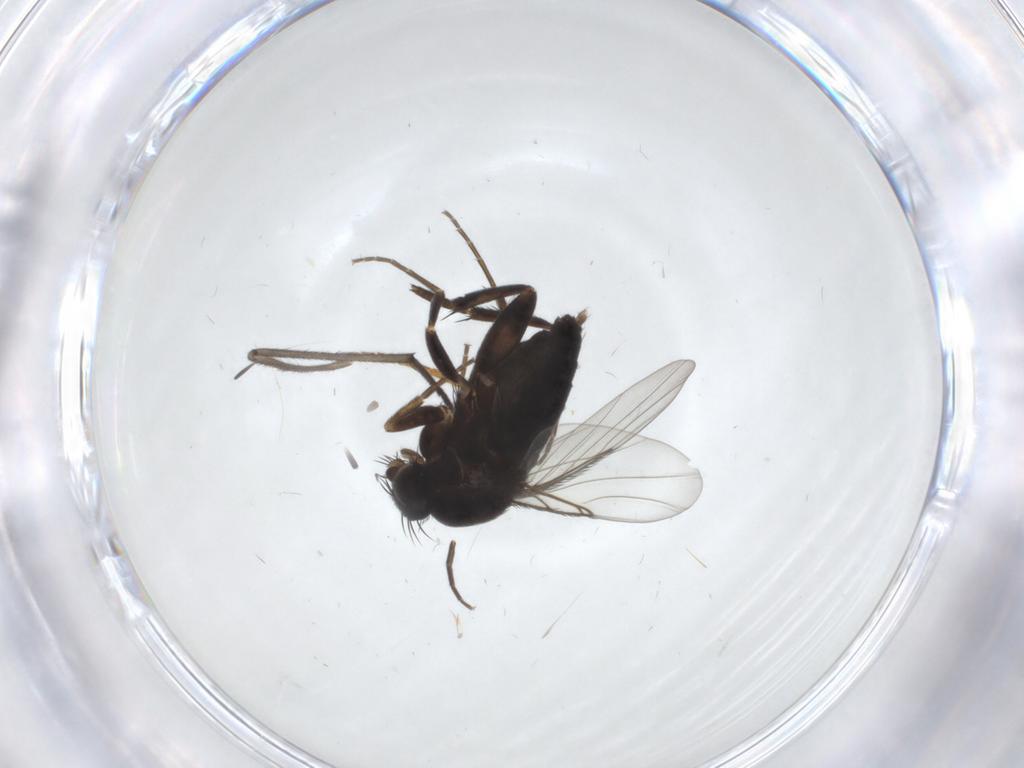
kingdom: Animalia
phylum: Arthropoda
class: Insecta
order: Diptera
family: Phoridae
